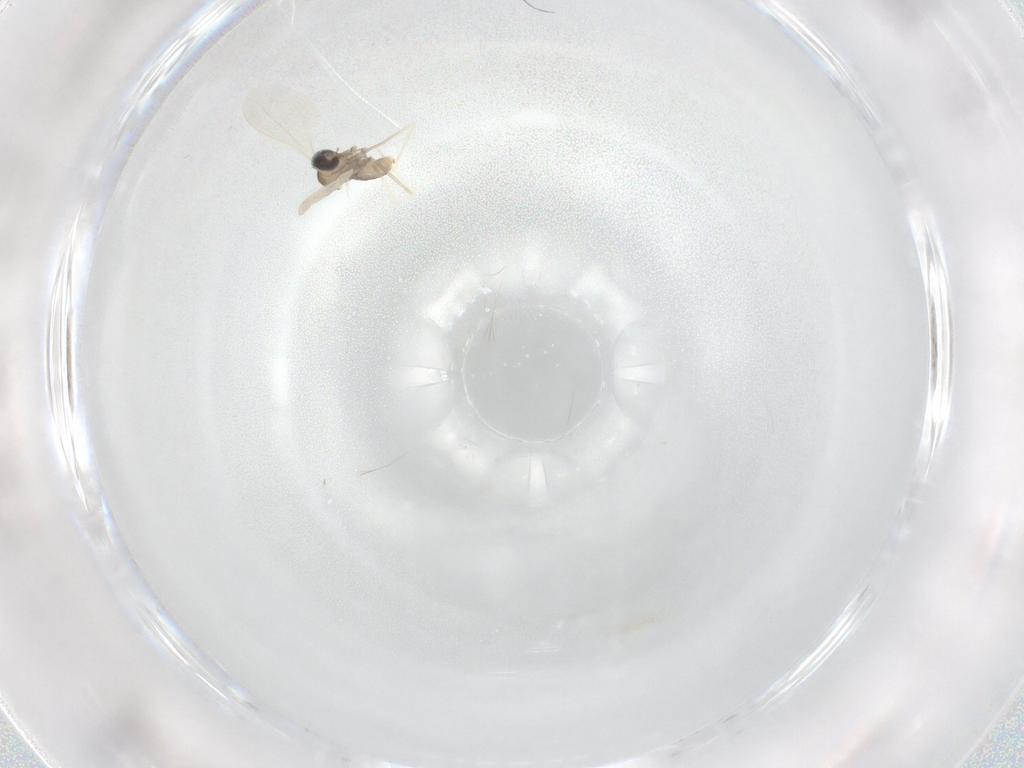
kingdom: Animalia
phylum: Arthropoda
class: Insecta
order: Diptera
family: Cecidomyiidae
